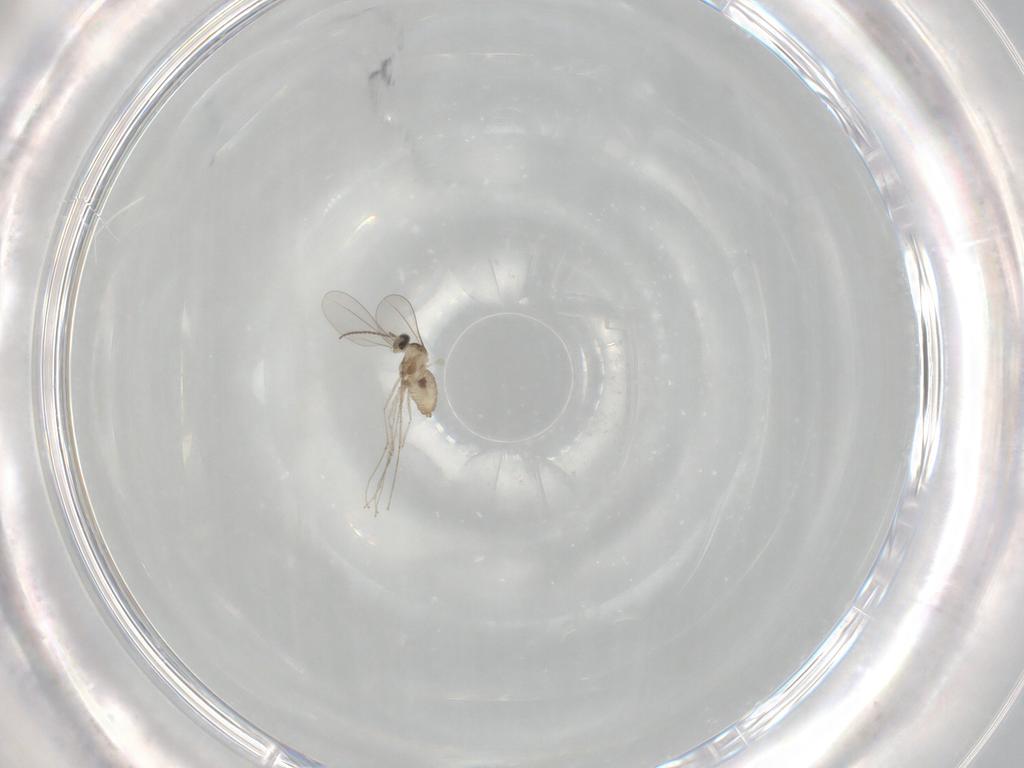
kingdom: Animalia
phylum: Arthropoda
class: Insecta
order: Diptera
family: Cecidomyiidae
